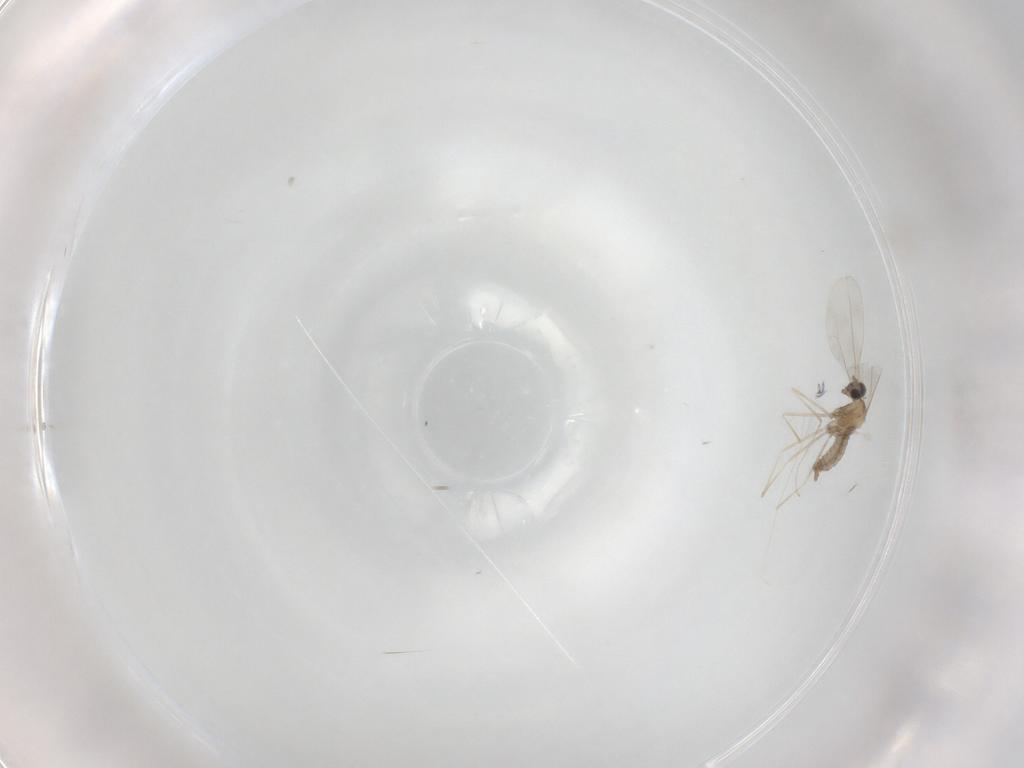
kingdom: Animalia
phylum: Arthropoda
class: Insecta
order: Diptera
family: Cecidomyiidae
